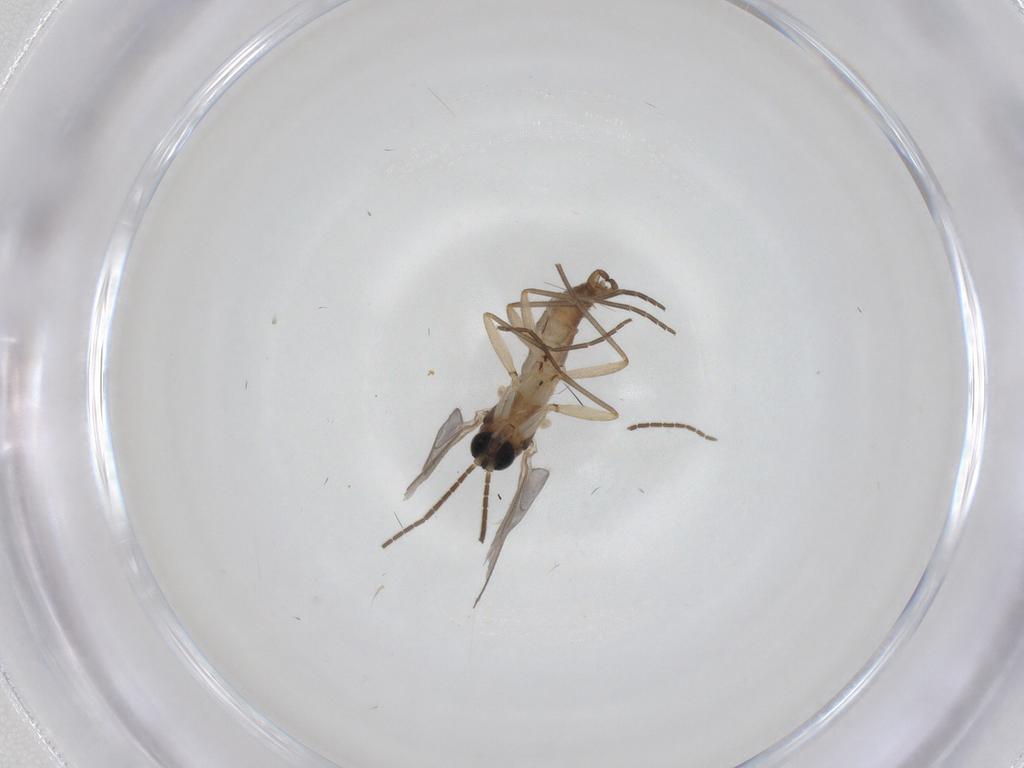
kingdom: Animalia
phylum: Arthropoda
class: Insecta
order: Diptera
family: Sciaridae
